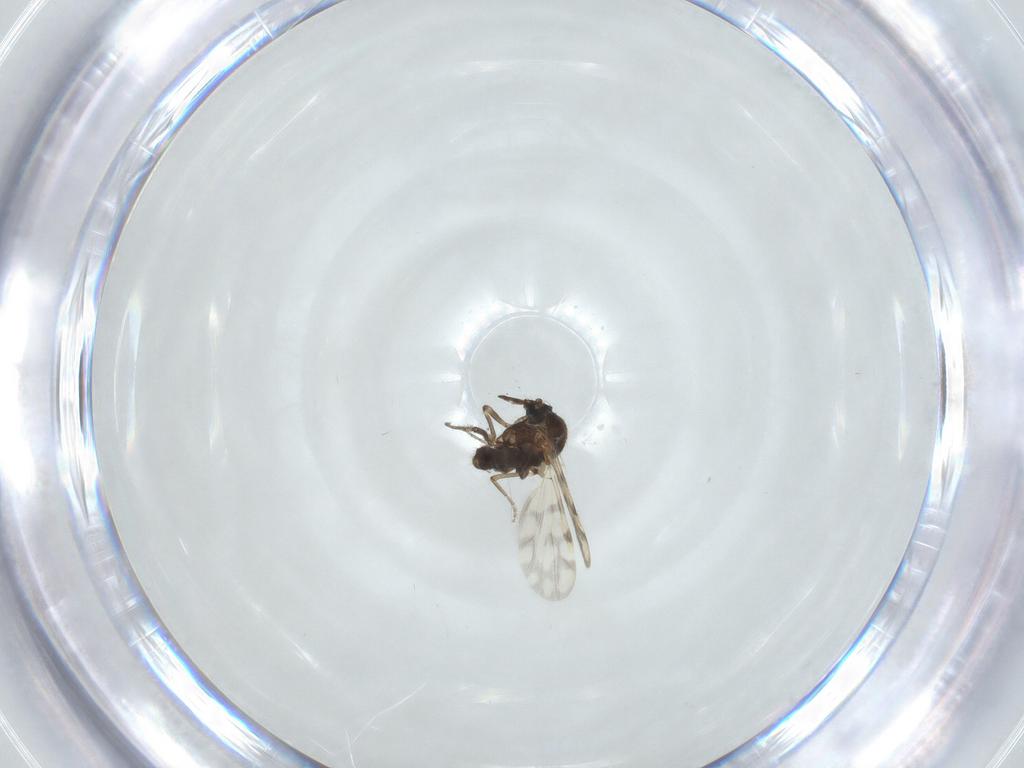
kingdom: Animalia
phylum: Arthropoda
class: Insecta
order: Diptera
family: Ceratopogonidae
